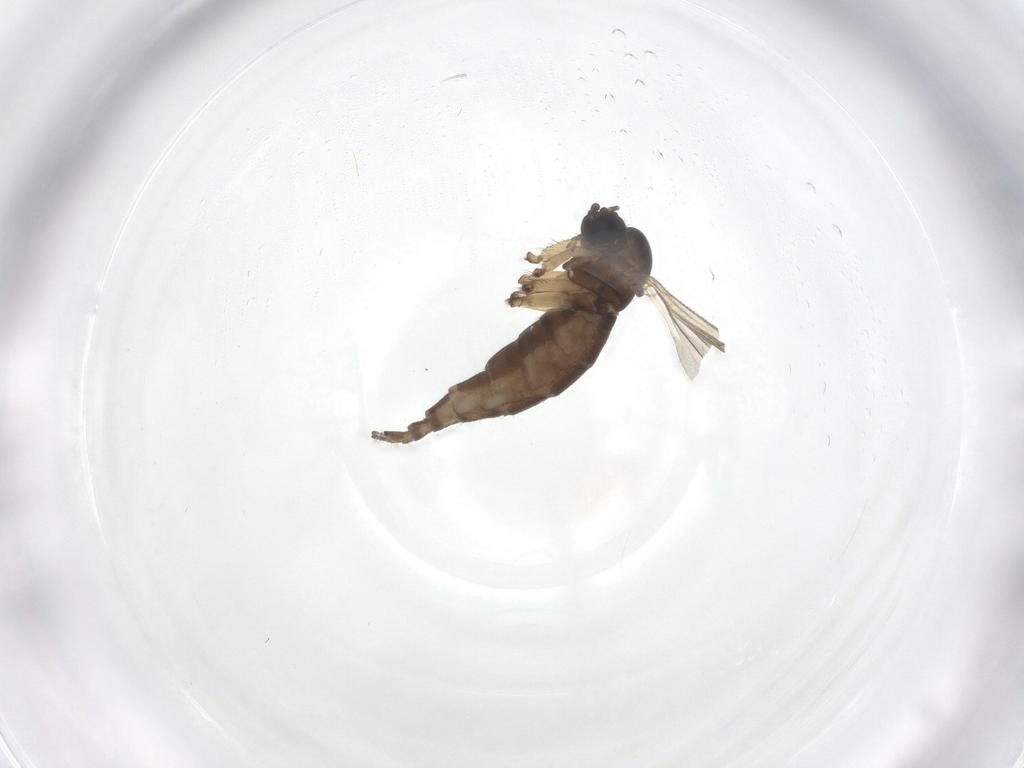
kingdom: Animalia
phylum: Arthropoda
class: Insecta
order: Diptera
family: Sciaridae
